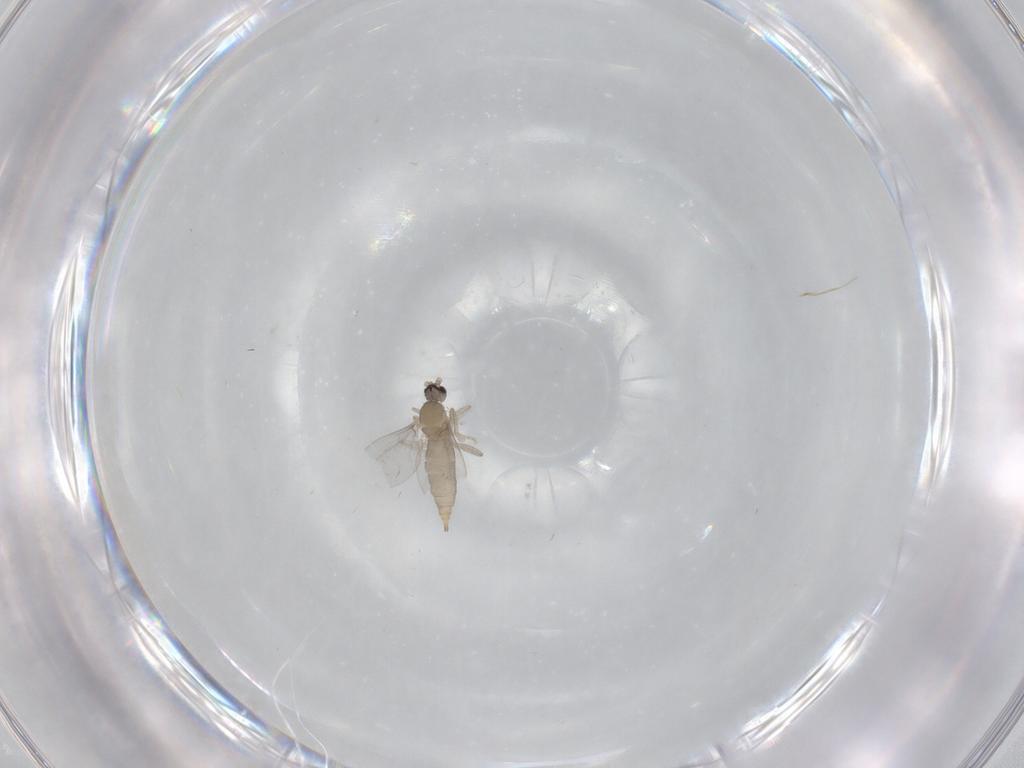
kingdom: Animalia
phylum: Arthropoda
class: Insecta
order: Diptera
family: Cecidomyiidae
